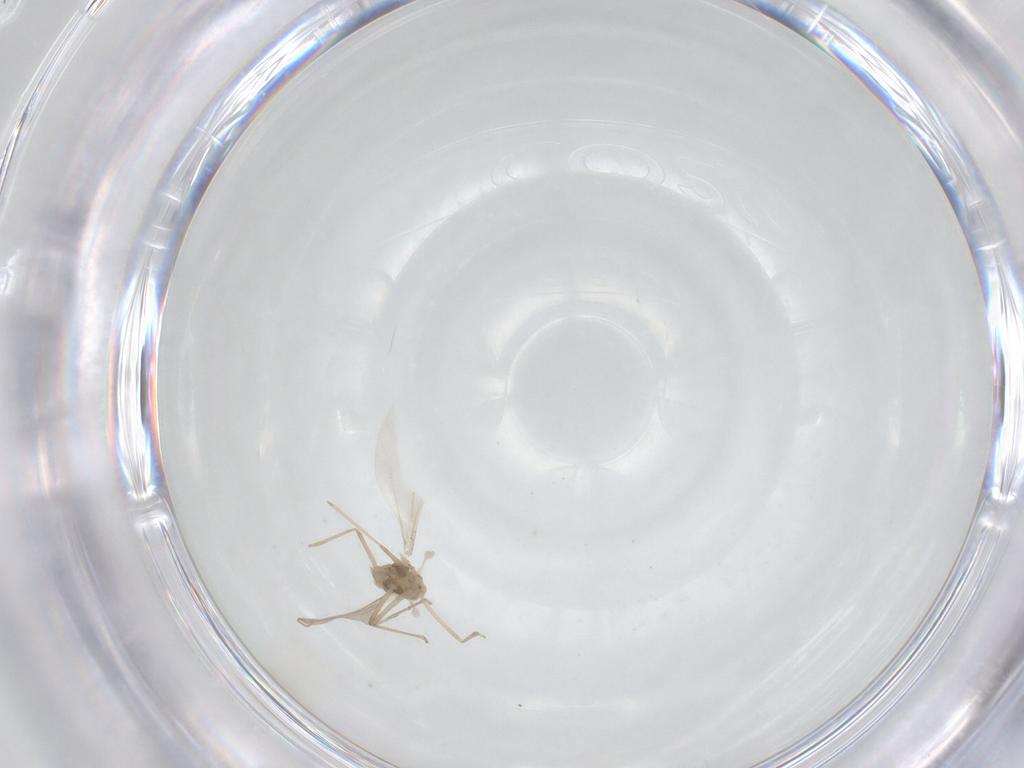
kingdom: Animalia
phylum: Arthropoda
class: Insecta
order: Diptera
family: Cecidomyiidae
